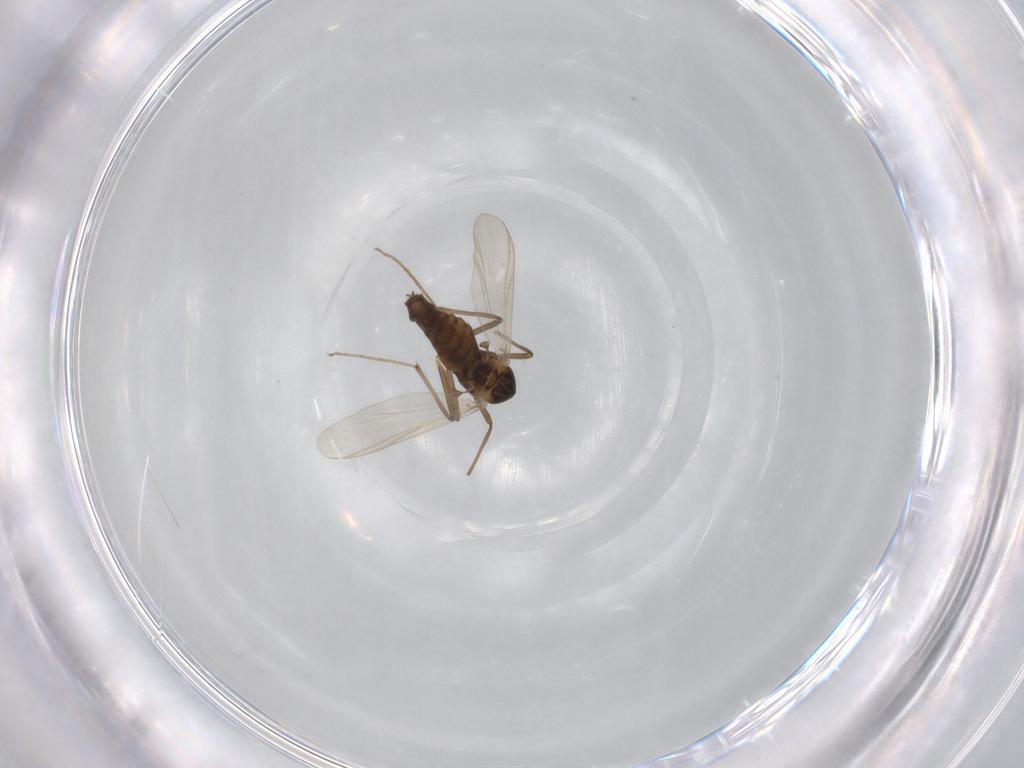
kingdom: Animalia
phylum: Arthropoda
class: Insecta
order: Diptera
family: Chironomidae
